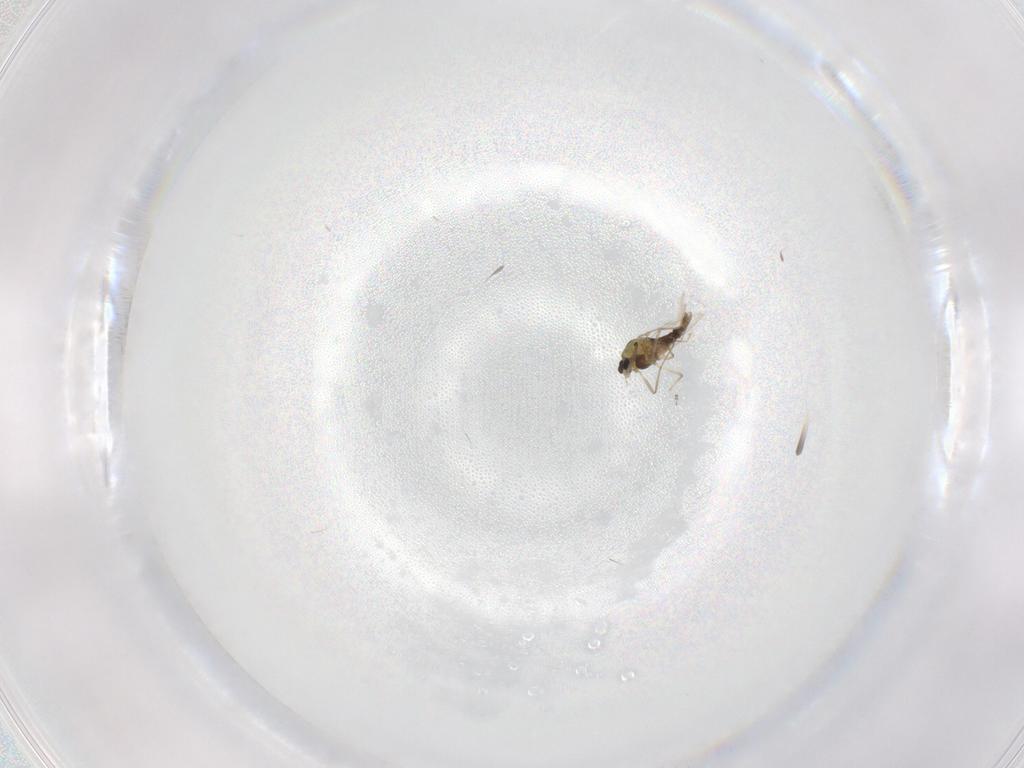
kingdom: Animalia
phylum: Arthropoda
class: Insecta
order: Diptera
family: Chironomidae
